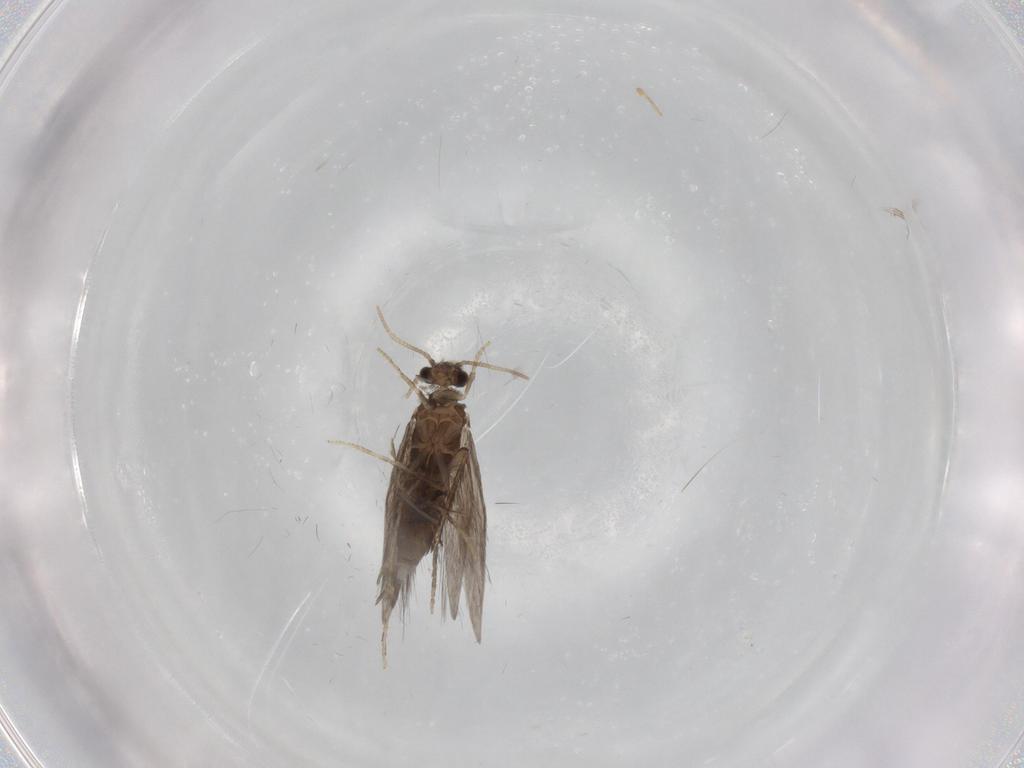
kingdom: Animalia
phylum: Arthropoda
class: Insecta
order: Trichoptera
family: Hydroptilidae
